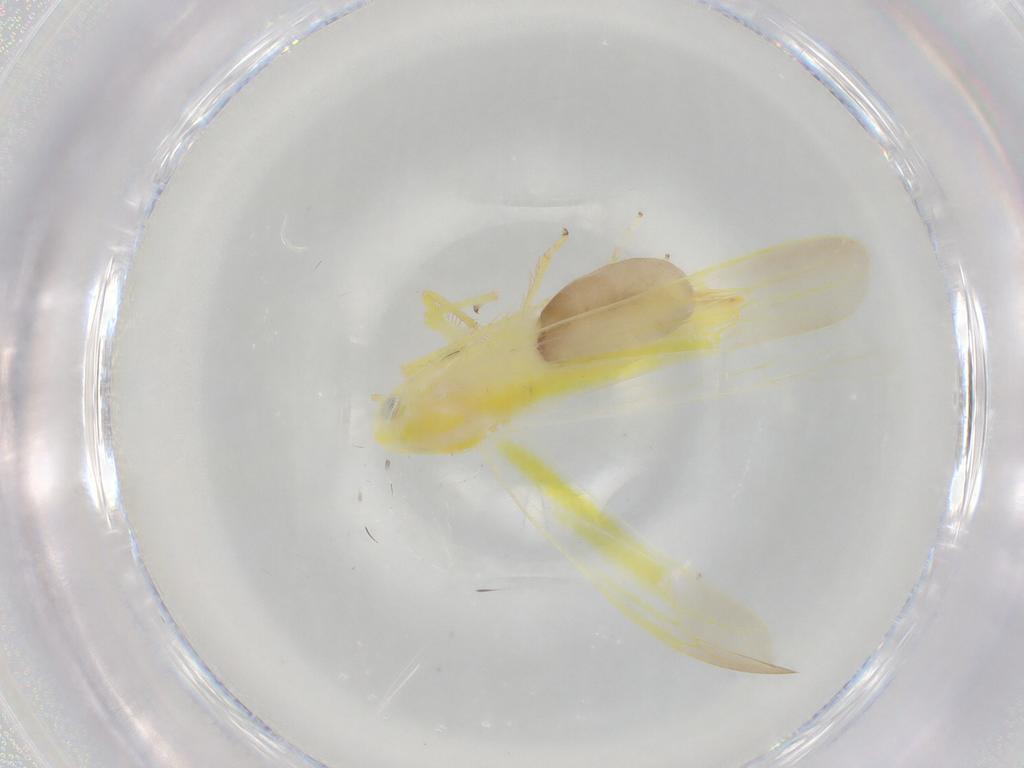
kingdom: Animalia
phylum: Arthropoda
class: Insecta
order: Hemiptera
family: Cicadellidae
